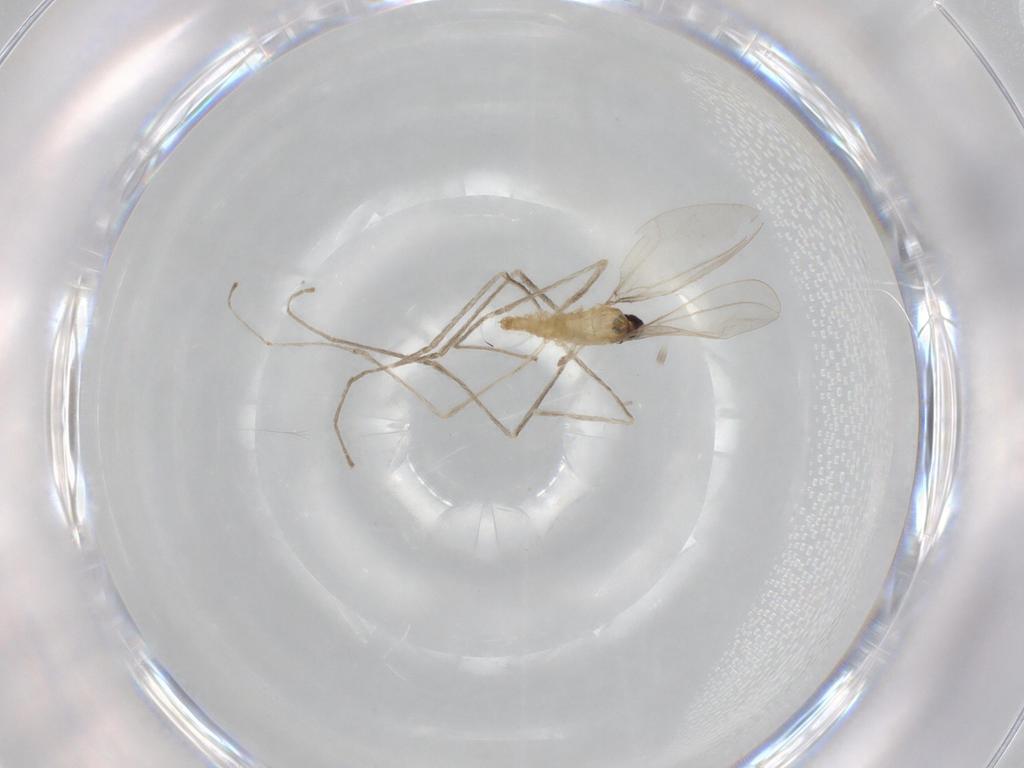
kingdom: Animalia
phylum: Arthropoda
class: Insecta
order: Diptera
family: Cecidomyiidae
